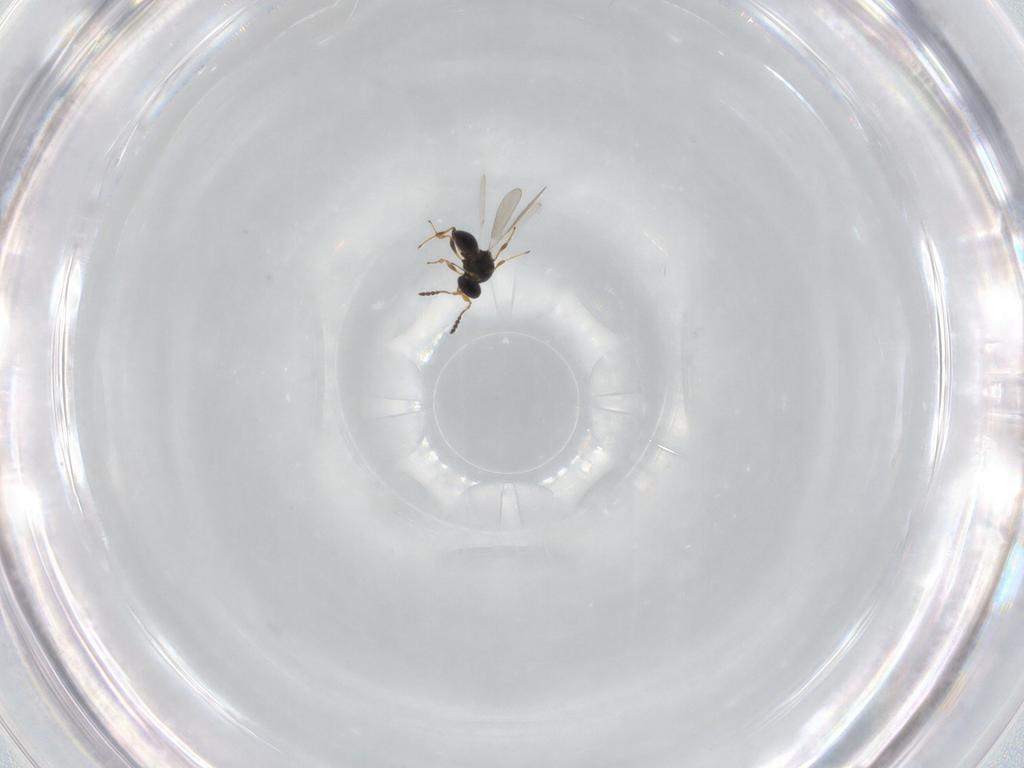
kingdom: Animalia
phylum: Arthropoda
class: Insecta
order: Hymenoptera
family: Platygastridae
